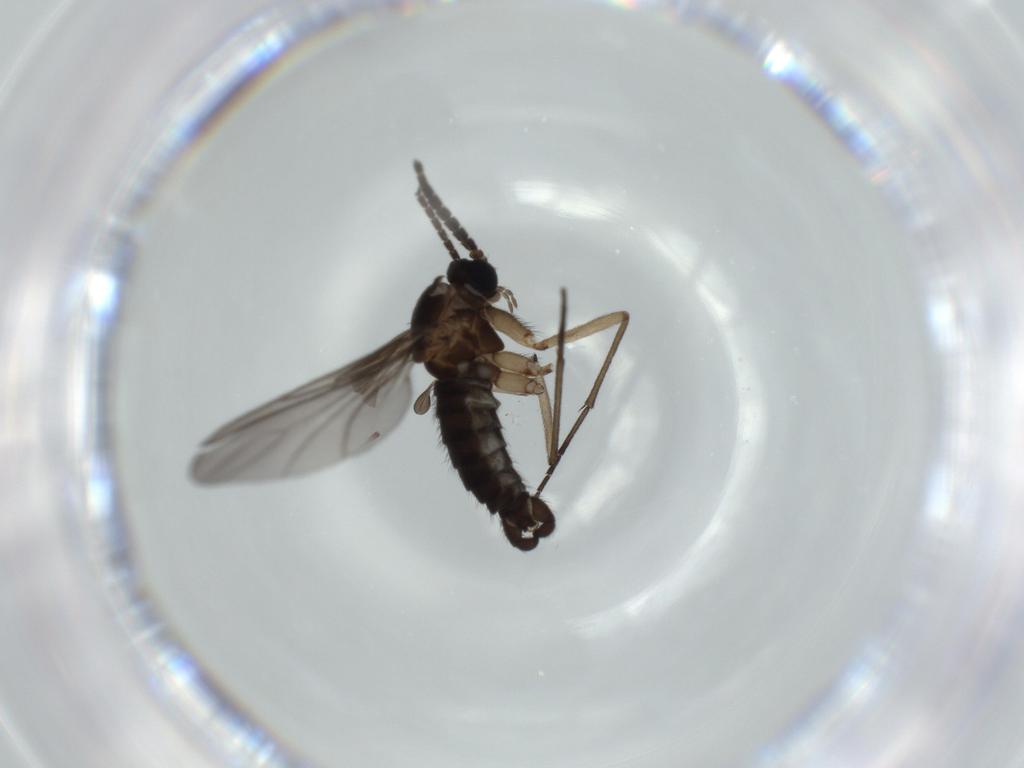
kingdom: Animalia
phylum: Arthropoda
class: Insecta
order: Diptera
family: Sciaridae
